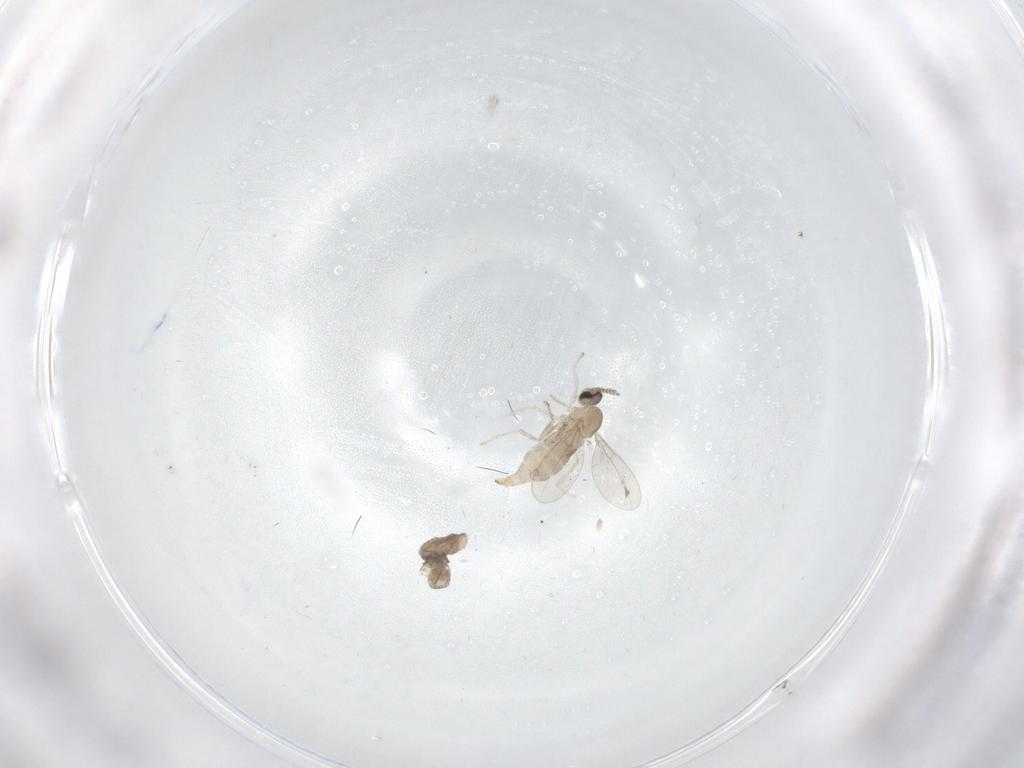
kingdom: Animalia
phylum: Arthropoda
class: Insecta
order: Diptera
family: Cecidomyiidae
